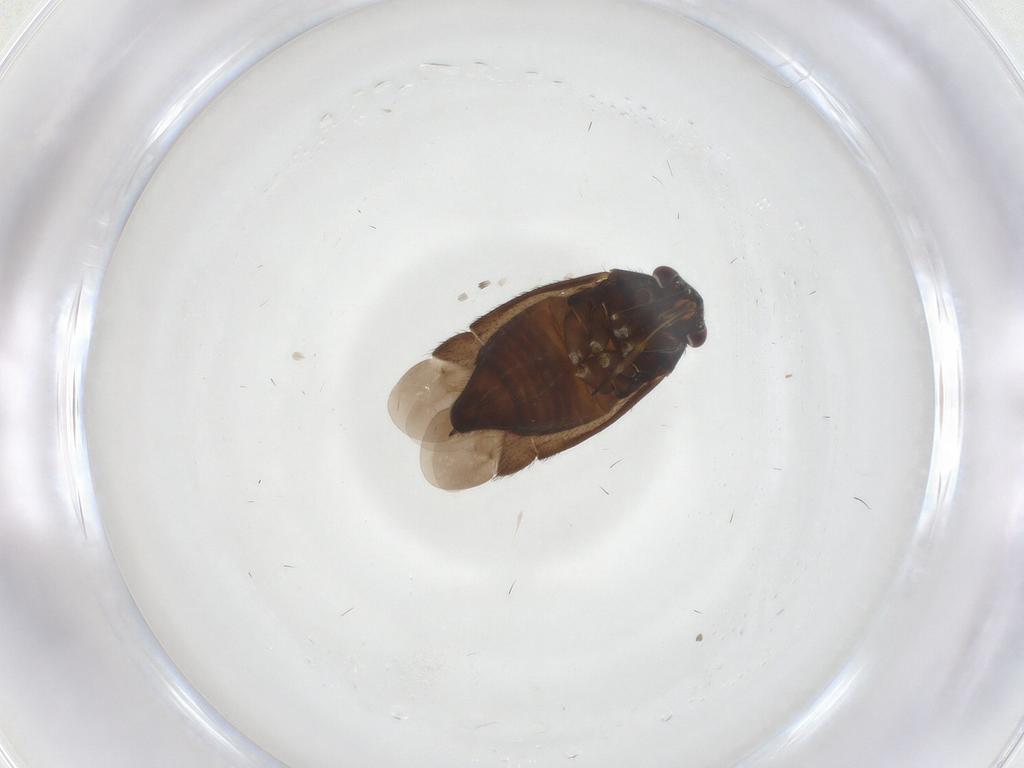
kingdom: Animalia
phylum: Arthropoda
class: Insecta
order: Hemiptera
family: Miridae
